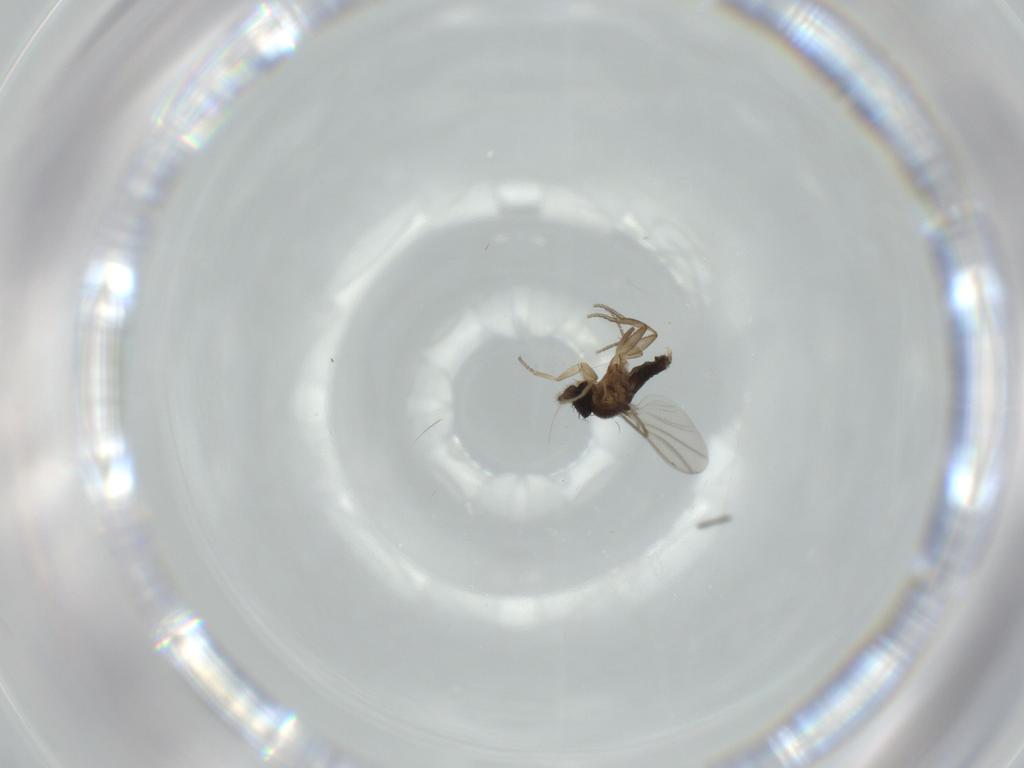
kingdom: Animalia
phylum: Arthropoda
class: Insecta
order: Diptera
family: Phoridae
